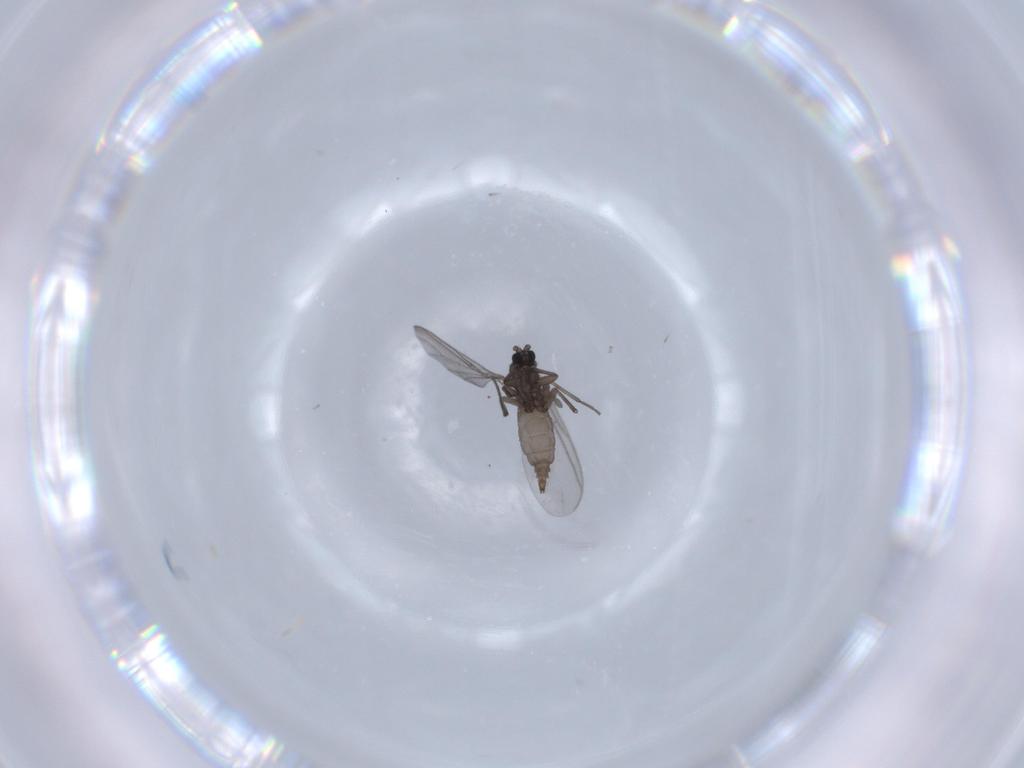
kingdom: Animalia
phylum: Arthropoda
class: Insecta
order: Diptera
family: Sciaridae
